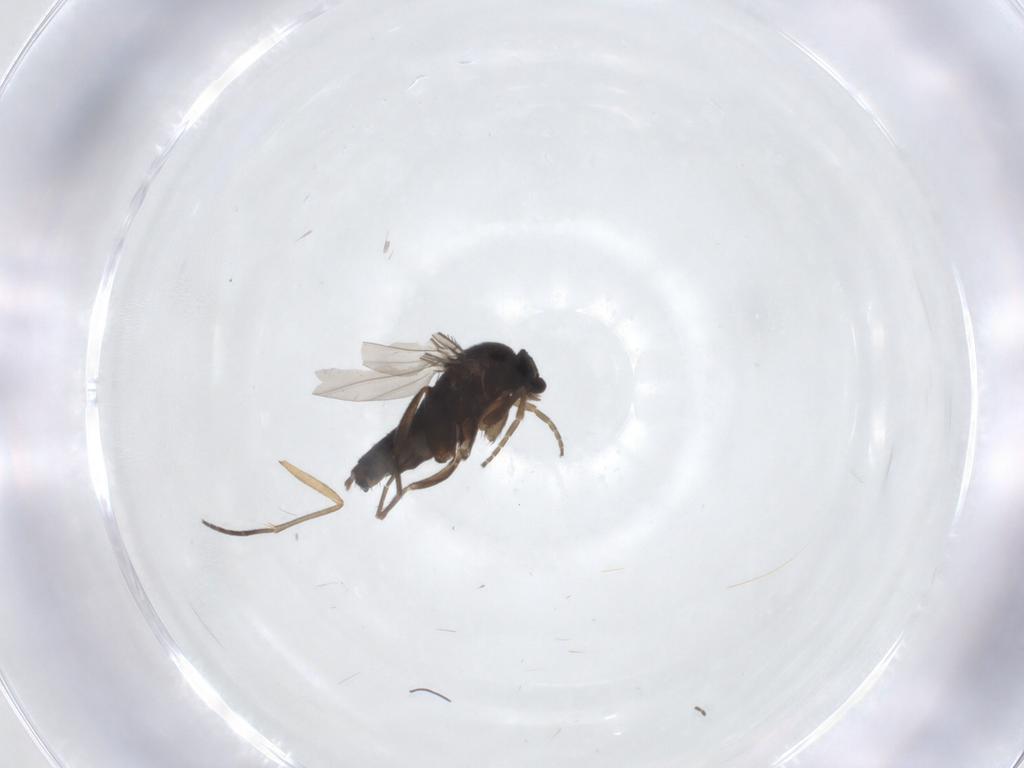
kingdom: Animalia
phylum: Arthropoda
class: Insecta
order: Diptera
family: Phoridae
